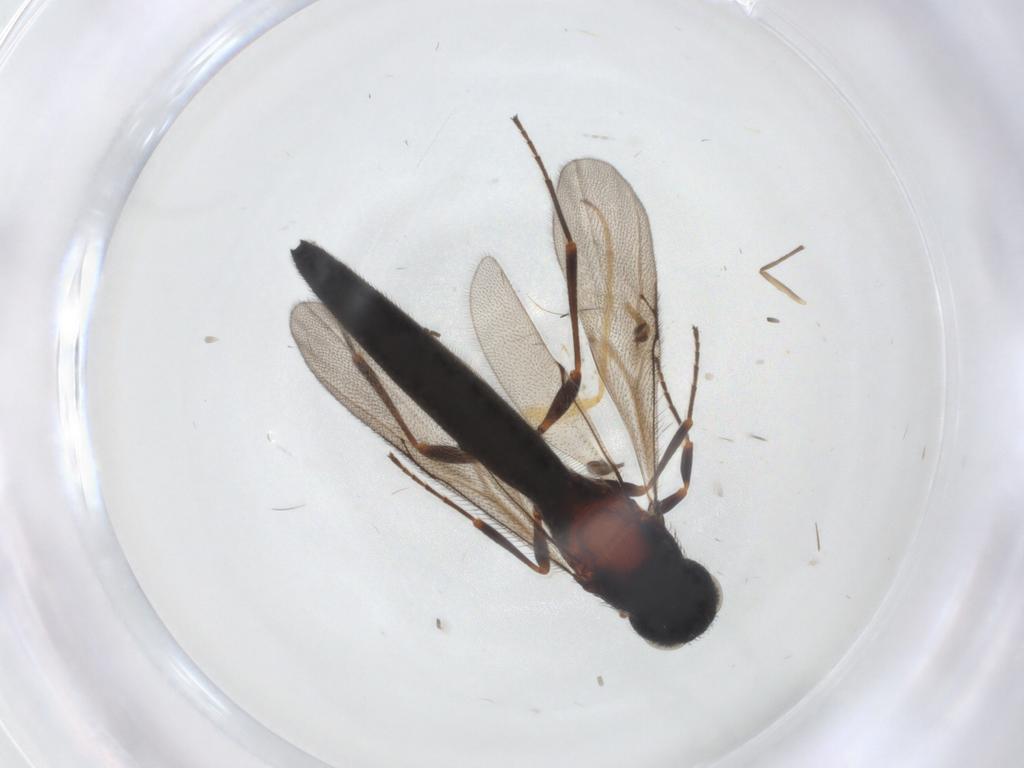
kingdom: Animalia
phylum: Arthropoda
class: Insecta
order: Hymenoptera
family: Scelionidae
